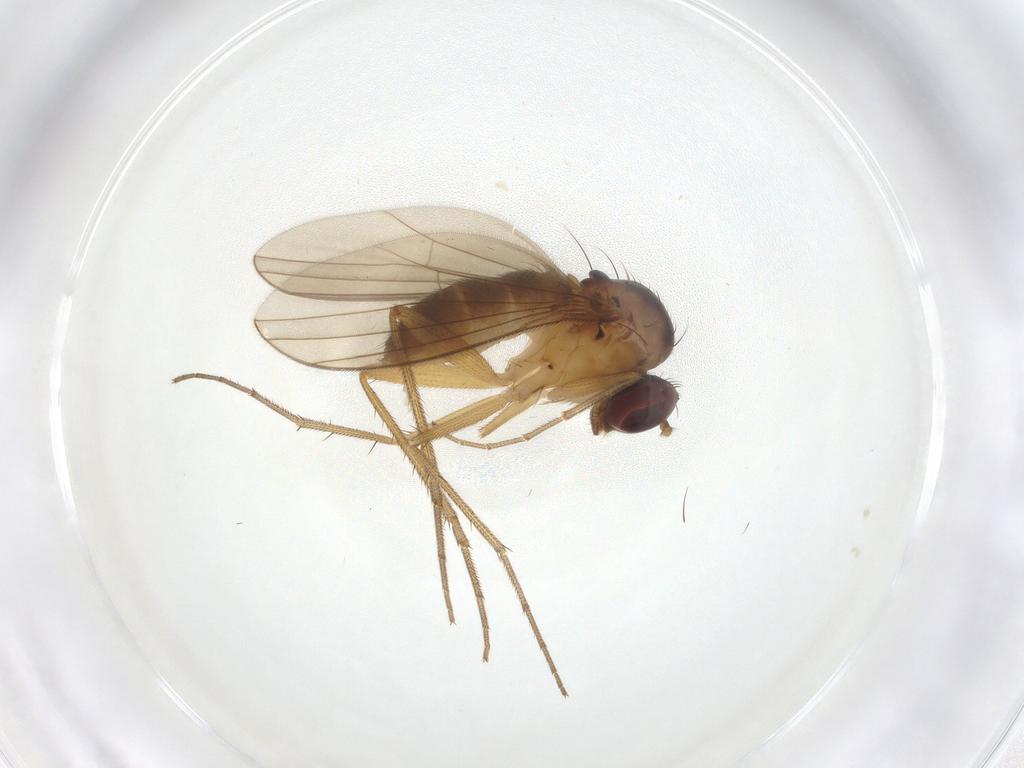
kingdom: Animalia
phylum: Arthropoda
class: Insecta
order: Diptera
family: Dolichopodidae
